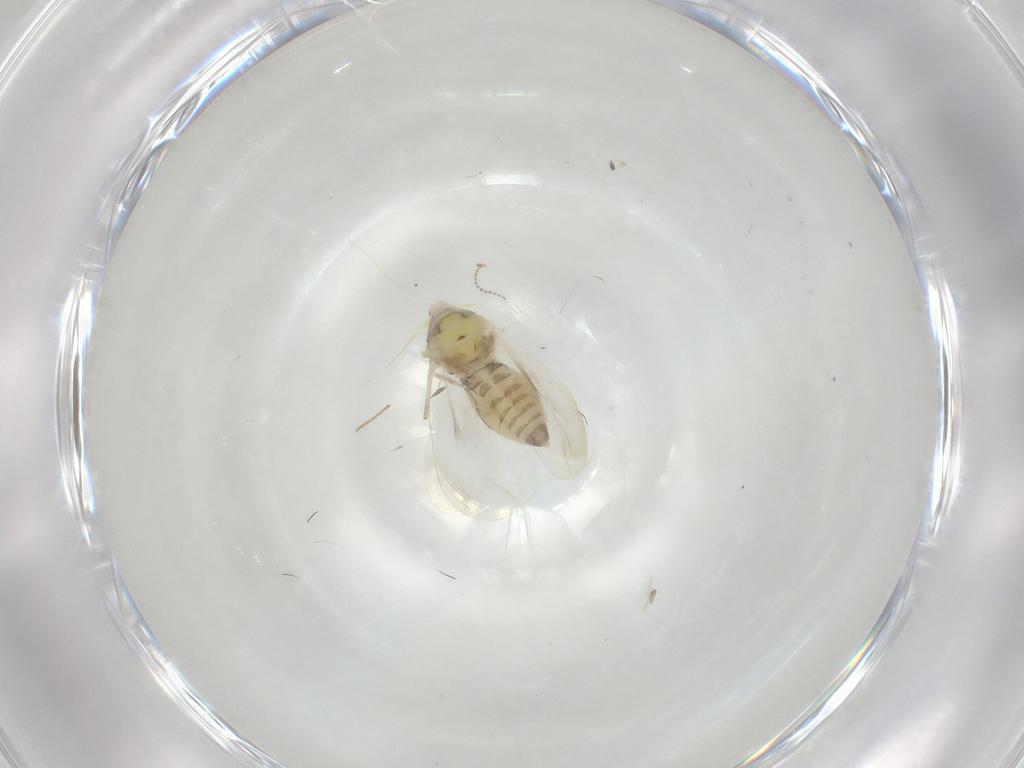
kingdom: Animalia
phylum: Arthropoda
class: Insecta
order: Hemiptera
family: Aleyrodidae
